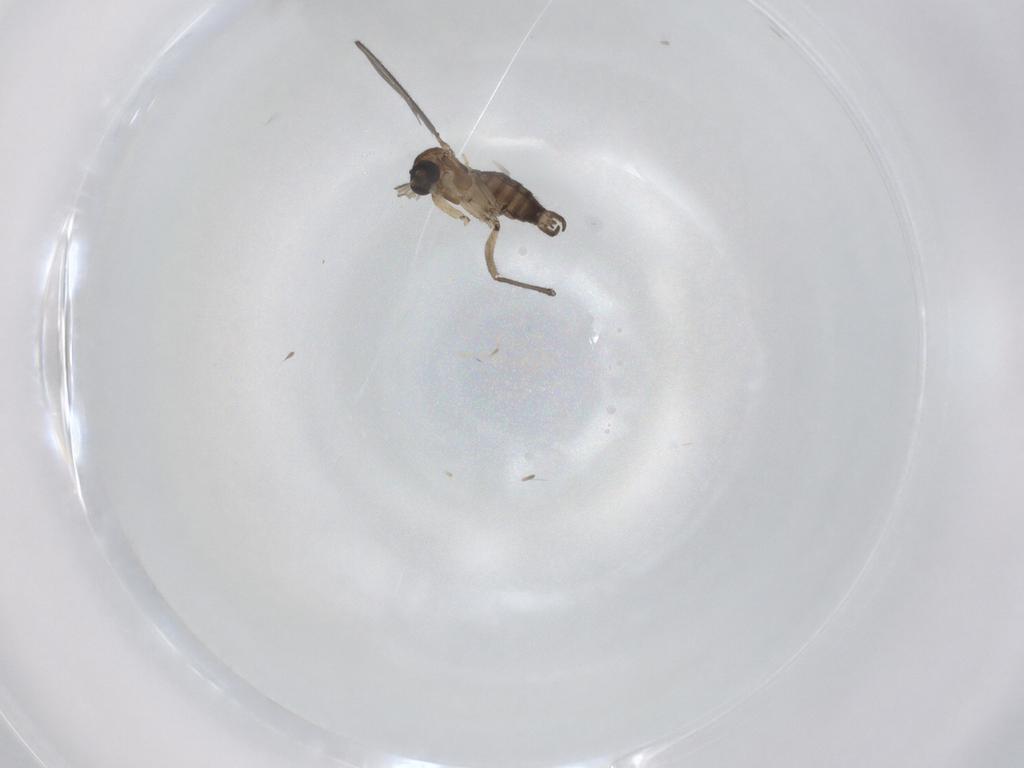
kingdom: Animalia
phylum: Arthropoda
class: Insecta
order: Diptera
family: Sciaridae
